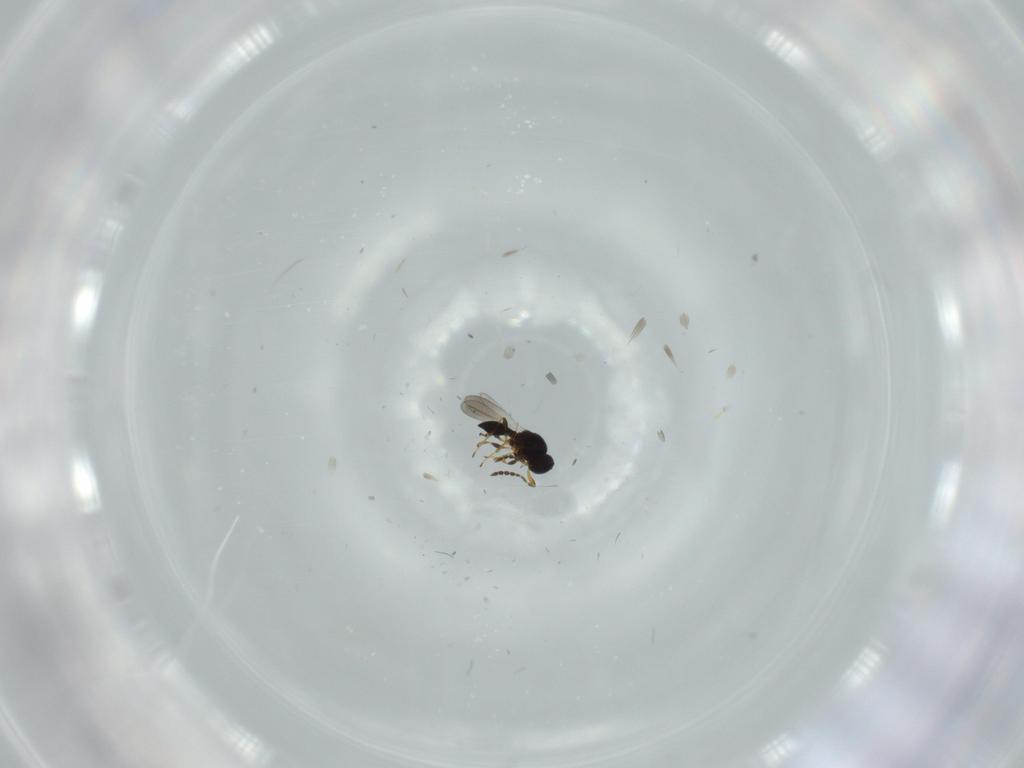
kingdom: Animalia
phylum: Arthropoda
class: Insecta
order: Hymenoptera
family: Platygastridae
